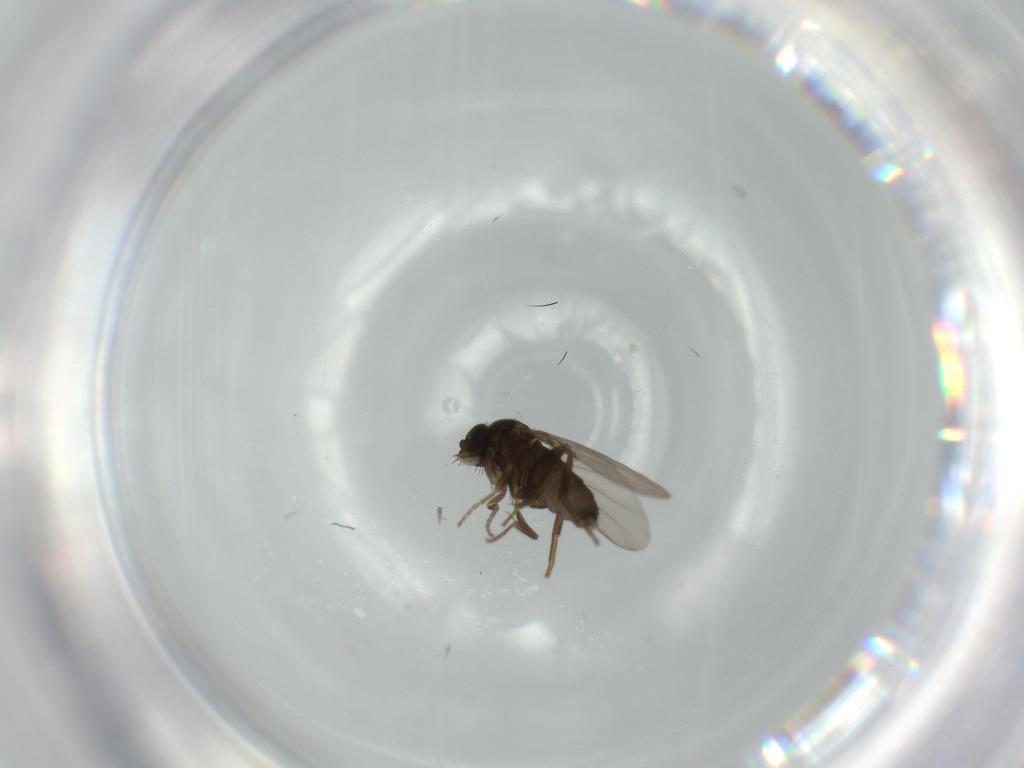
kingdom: Animalia
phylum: Arthropoda
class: Insecta
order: Diptera
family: Phoridae
